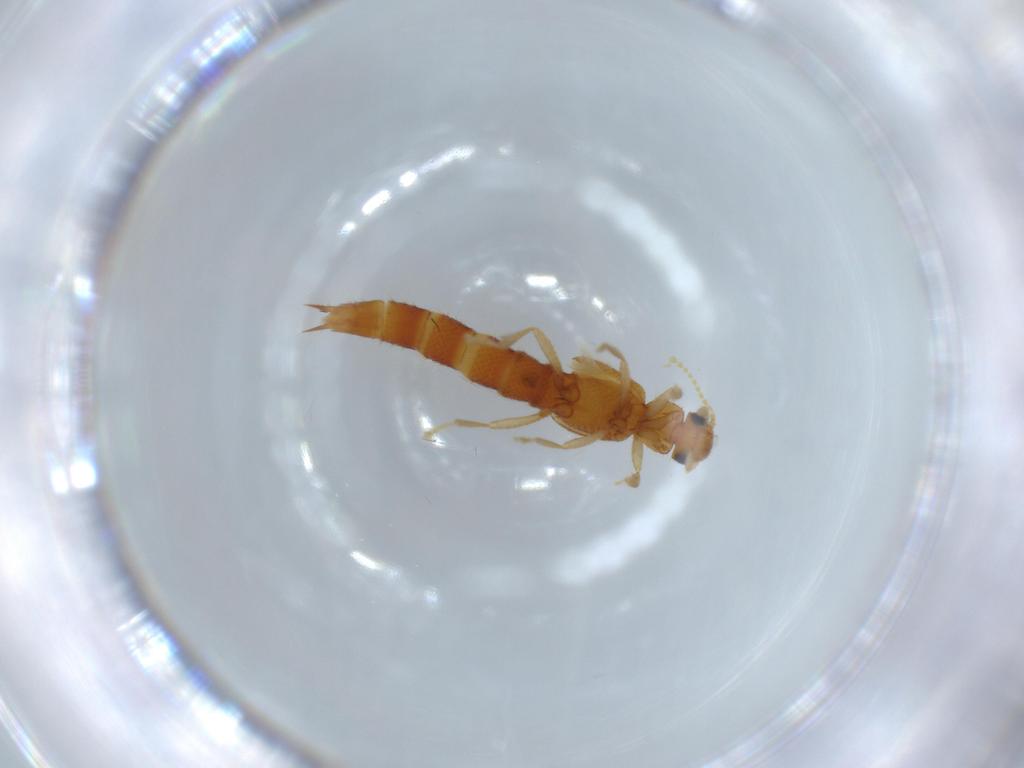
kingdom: Animalia
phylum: Arthropoda
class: Insecta
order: Coleoptera
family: Staphylinidae
